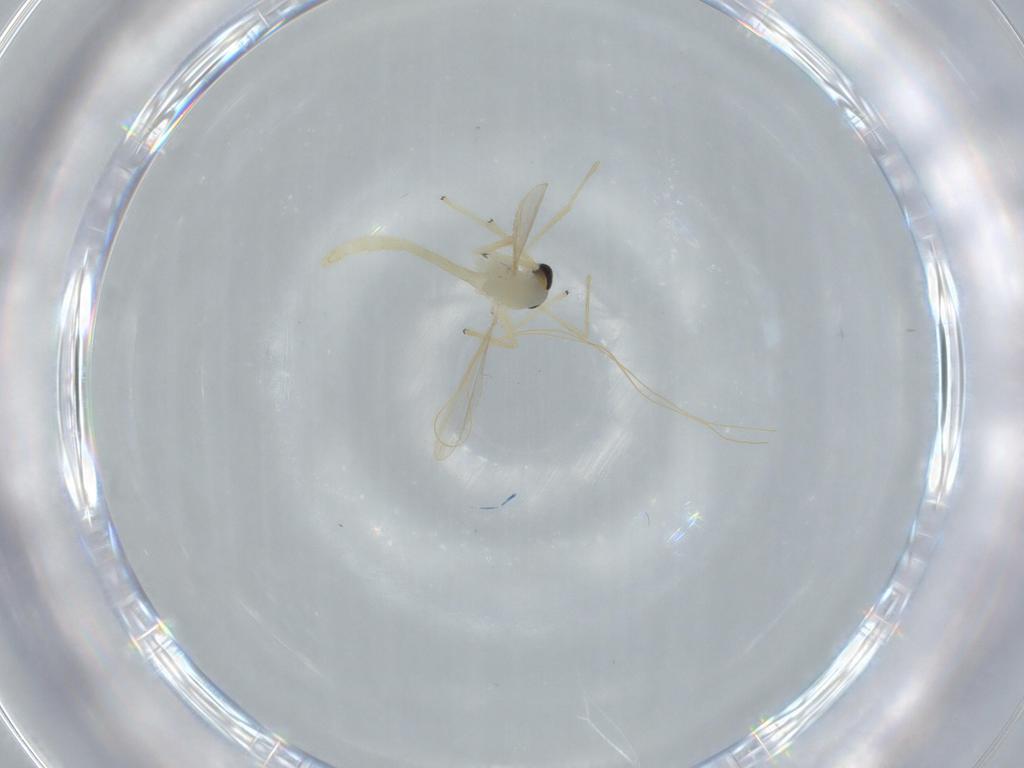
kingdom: Animalia
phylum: Arthropoda
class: Insecta
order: Diptera
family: Chironomidae
